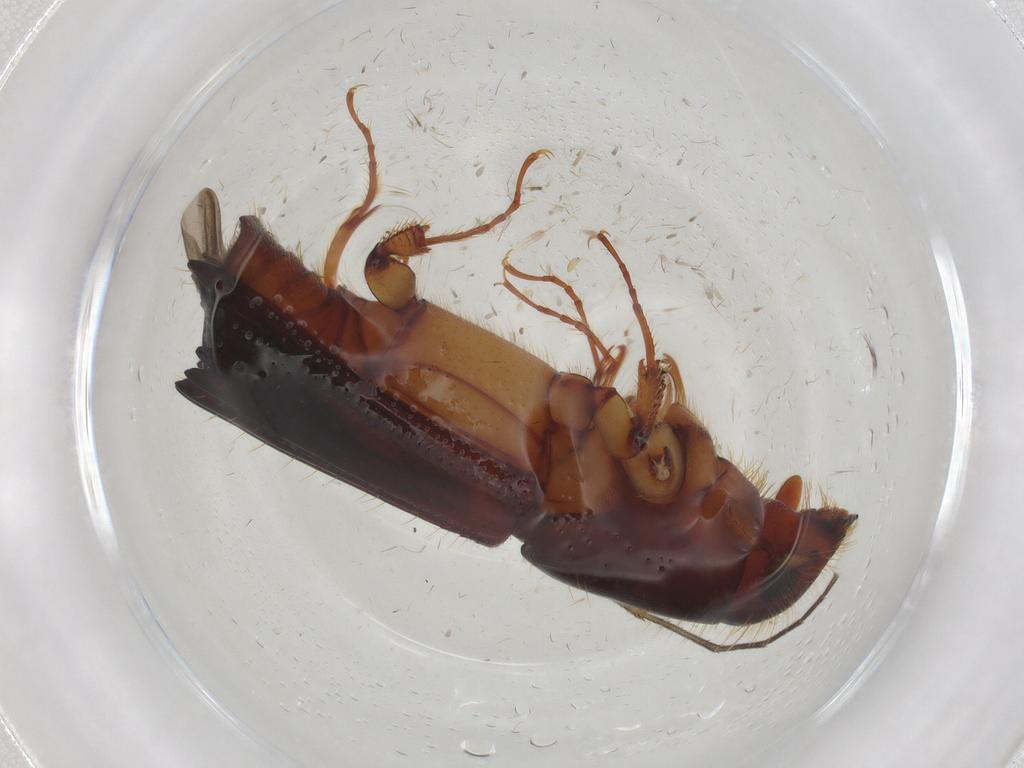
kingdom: Animalia
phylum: Arthropoda
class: Insecta
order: Coleoptera
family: Curculionidae
